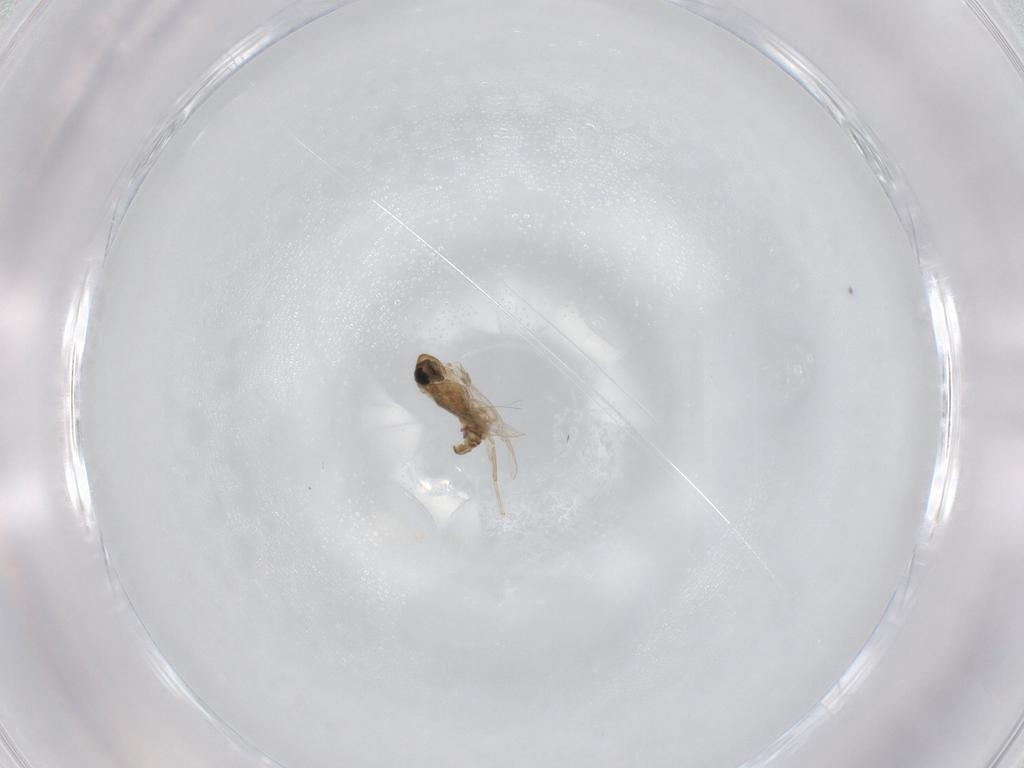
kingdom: Animalia
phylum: Arthropoda
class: Insecta
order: Diptera
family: Psychodidae
